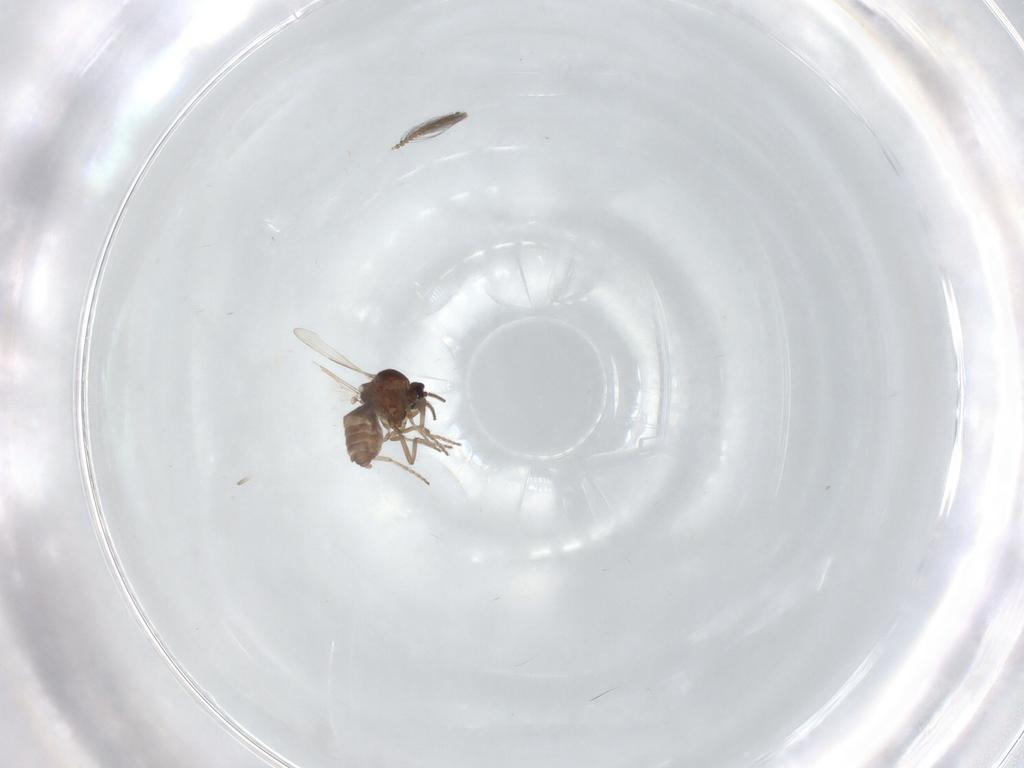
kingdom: Animalia
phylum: Arthropoda
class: Insecta
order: Diptera
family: Ceratopogonidae
